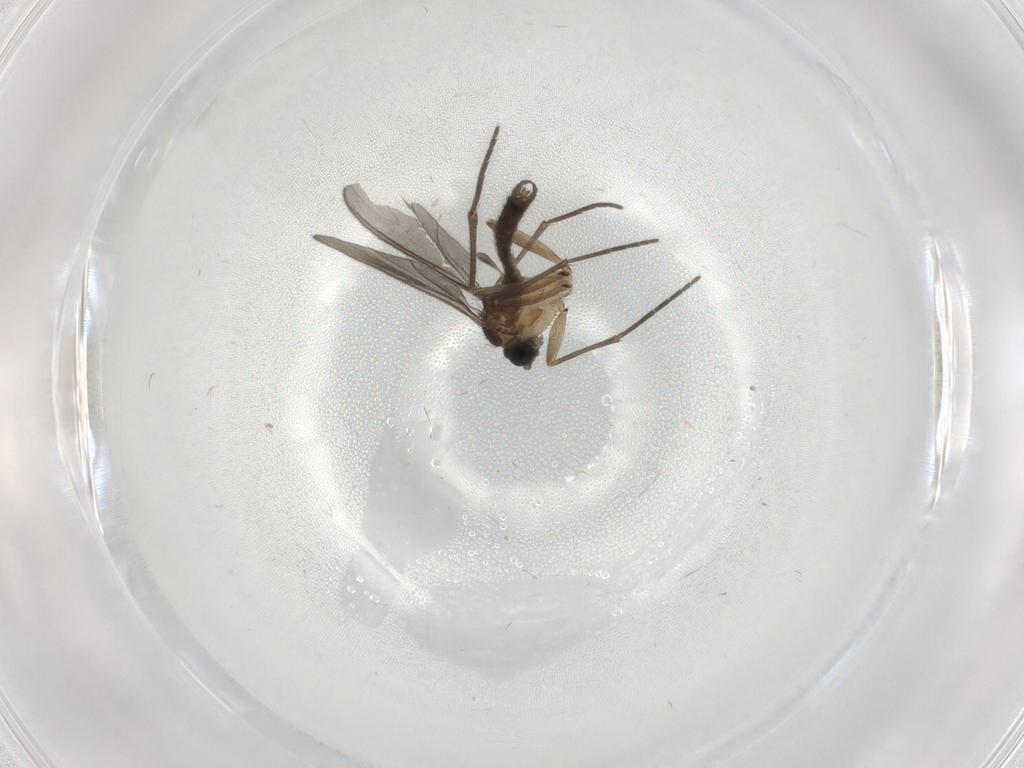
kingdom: Animalia
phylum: Arthropoda
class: Insecta
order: Diptera
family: Sciaridae
